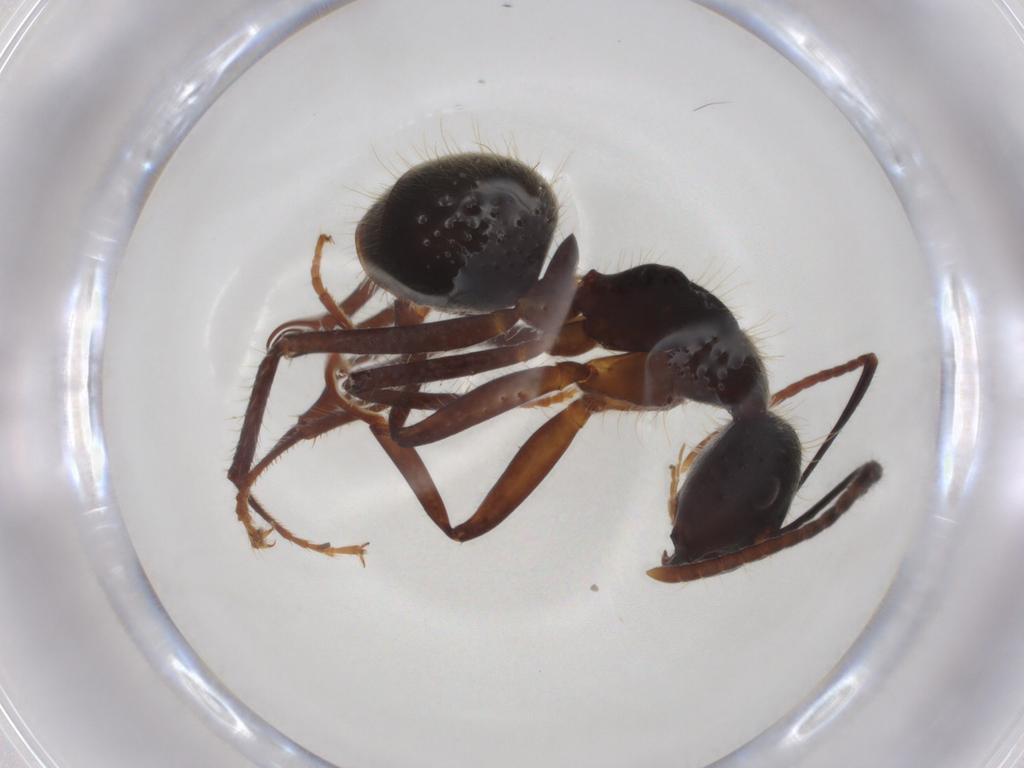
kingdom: Animalia
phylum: Arthropoda
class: Insecta
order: Hymenoptera
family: Formicidae
